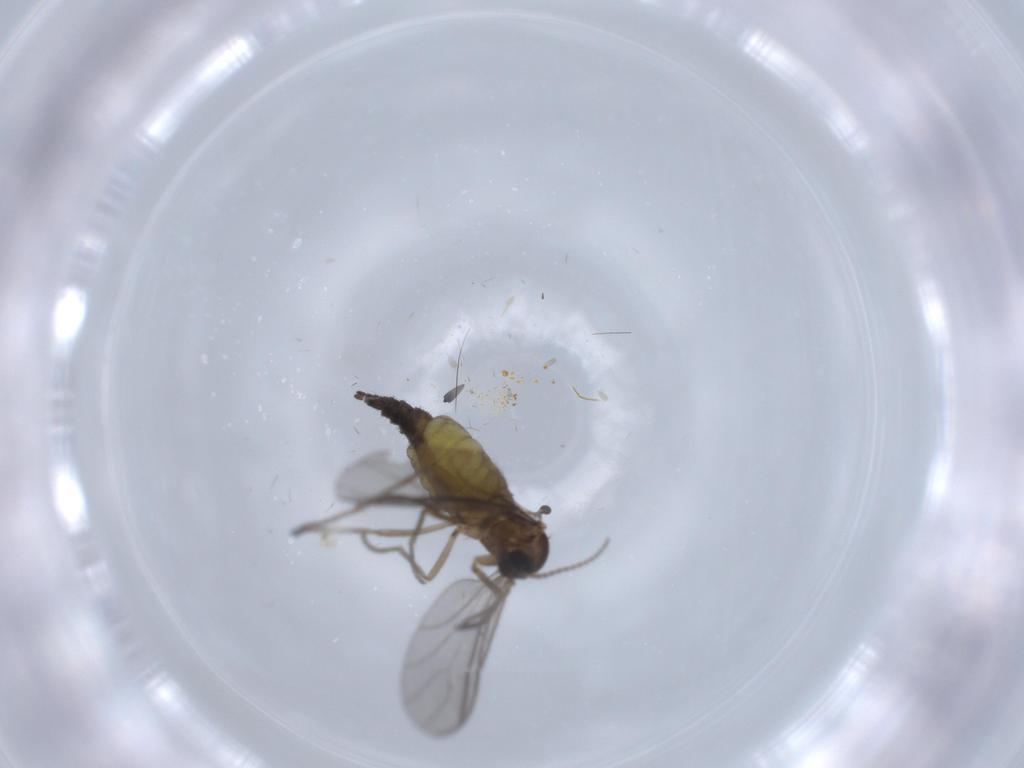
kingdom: Animalia
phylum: Arthropoda
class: Insecta
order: Diptera
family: Sciaridae
